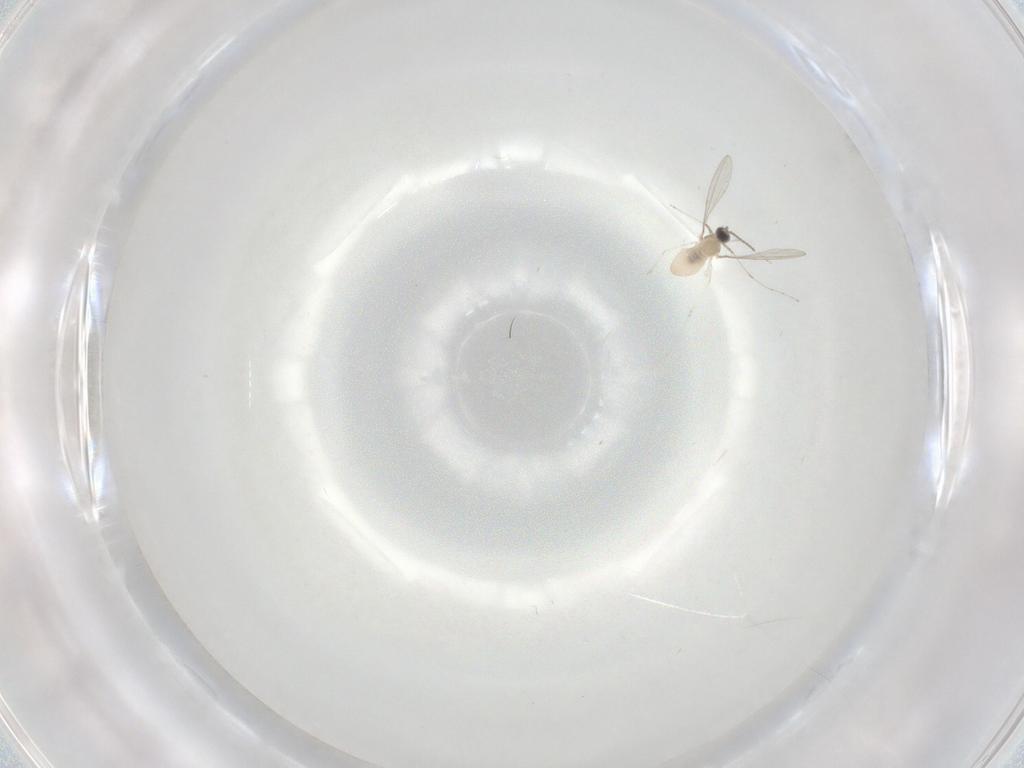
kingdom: Animalia
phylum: Arthropoda
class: Insecta
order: Diptera
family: Cecidomyiidae
